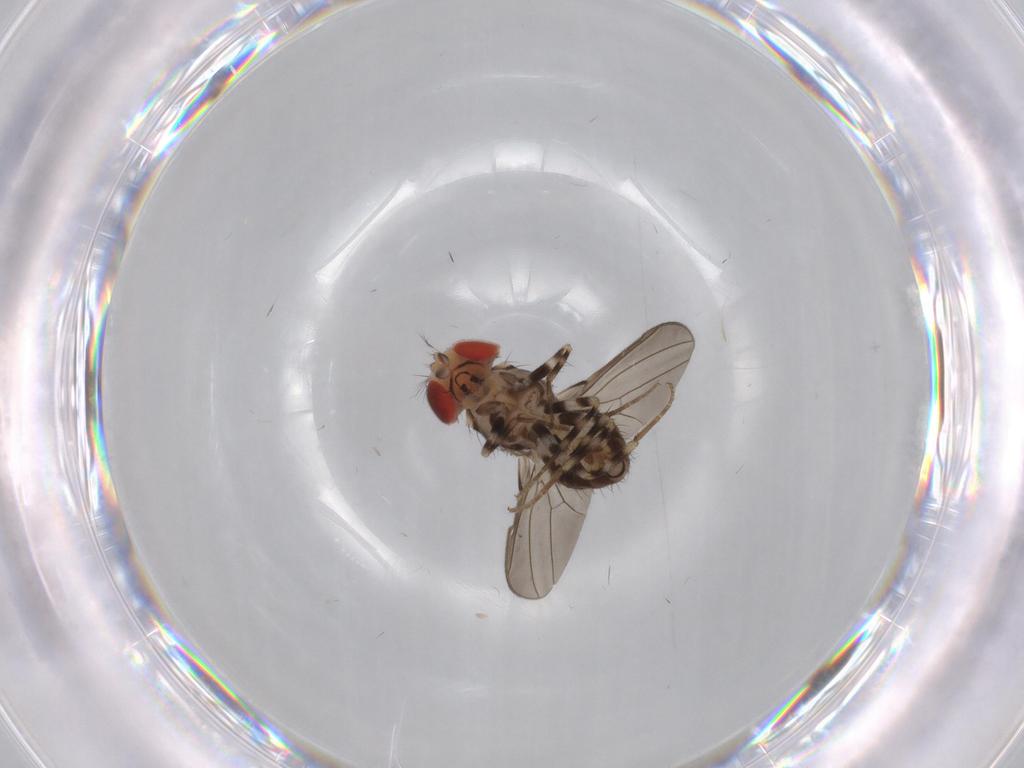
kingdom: Animalia
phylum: Arthropoda
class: Insecta
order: Diptera
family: Drosophilidae
